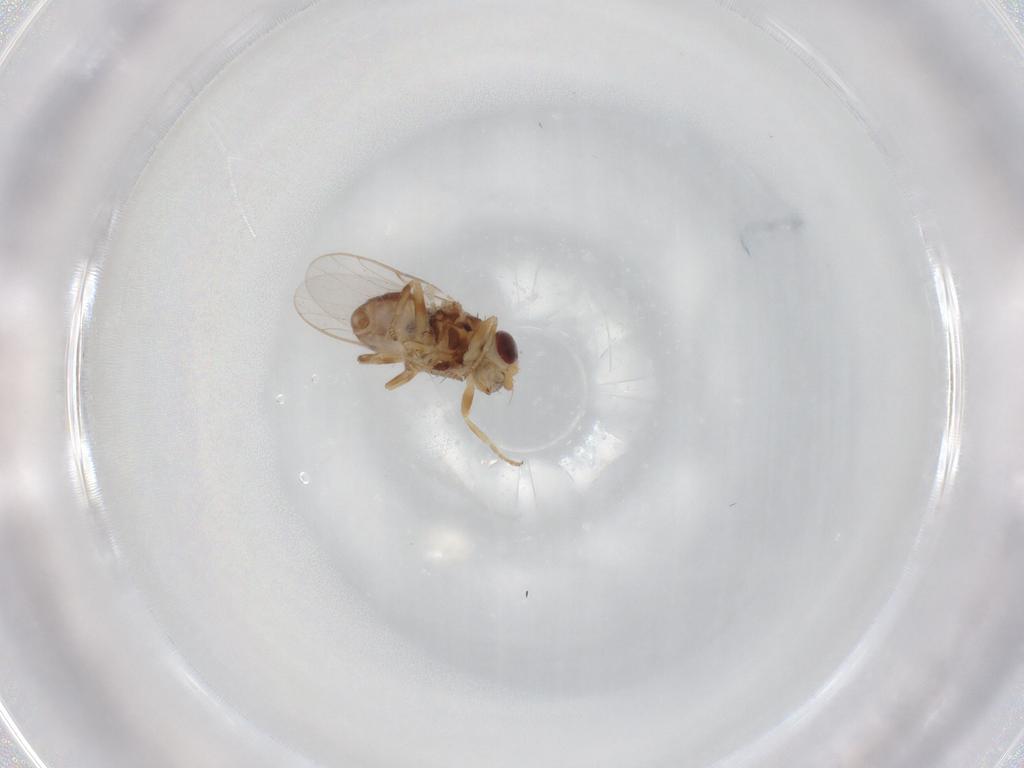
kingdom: Animalia
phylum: Arthropoda
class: Insecta
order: Diptera
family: Chloropidae
